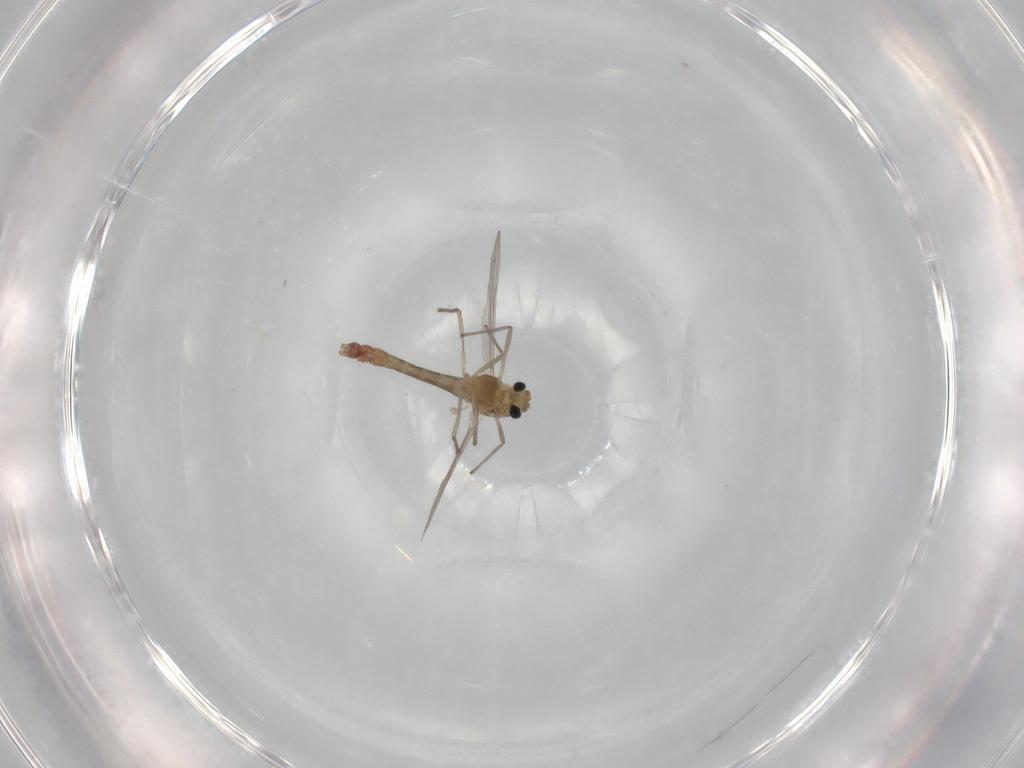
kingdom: Animalia
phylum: Arthropoda
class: Insecta
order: Diptera
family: Chironomidae
